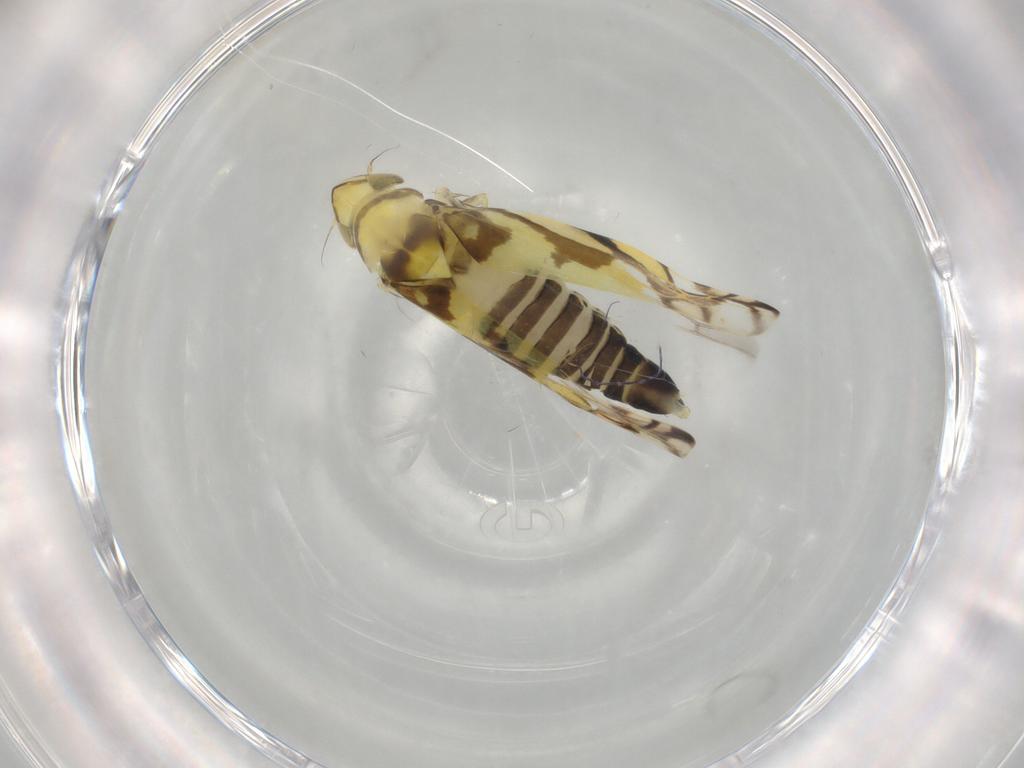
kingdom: Animalia
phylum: Arthropoda
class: Insecta
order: Hemiptera
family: Cicadellidae
